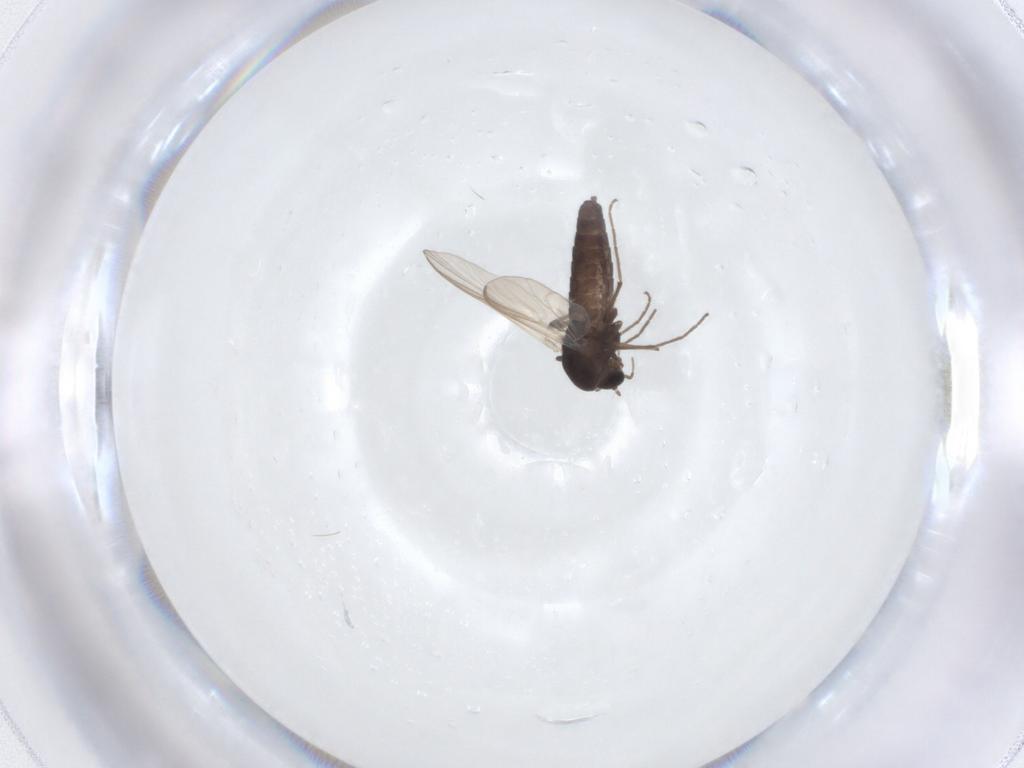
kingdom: Animalia
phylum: Arthropoda
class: Insecta
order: Diptera
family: Chironomidae
